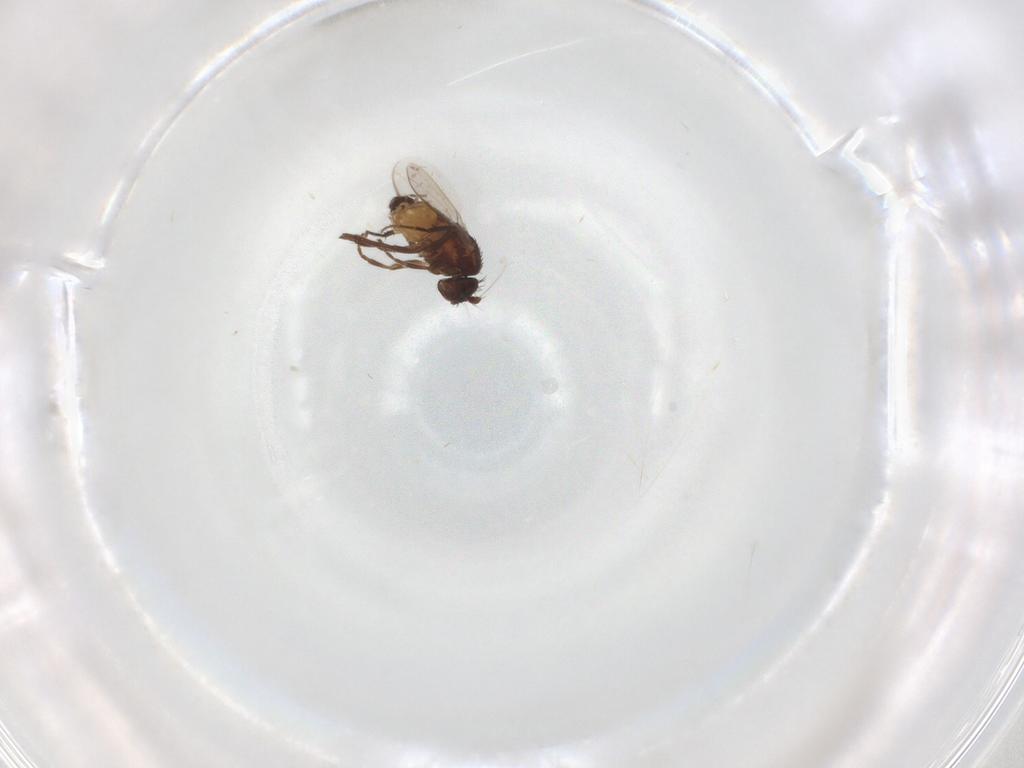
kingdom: Animalia
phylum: Arthropoda
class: Insecta
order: Diptera
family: Sphaeroceridae
